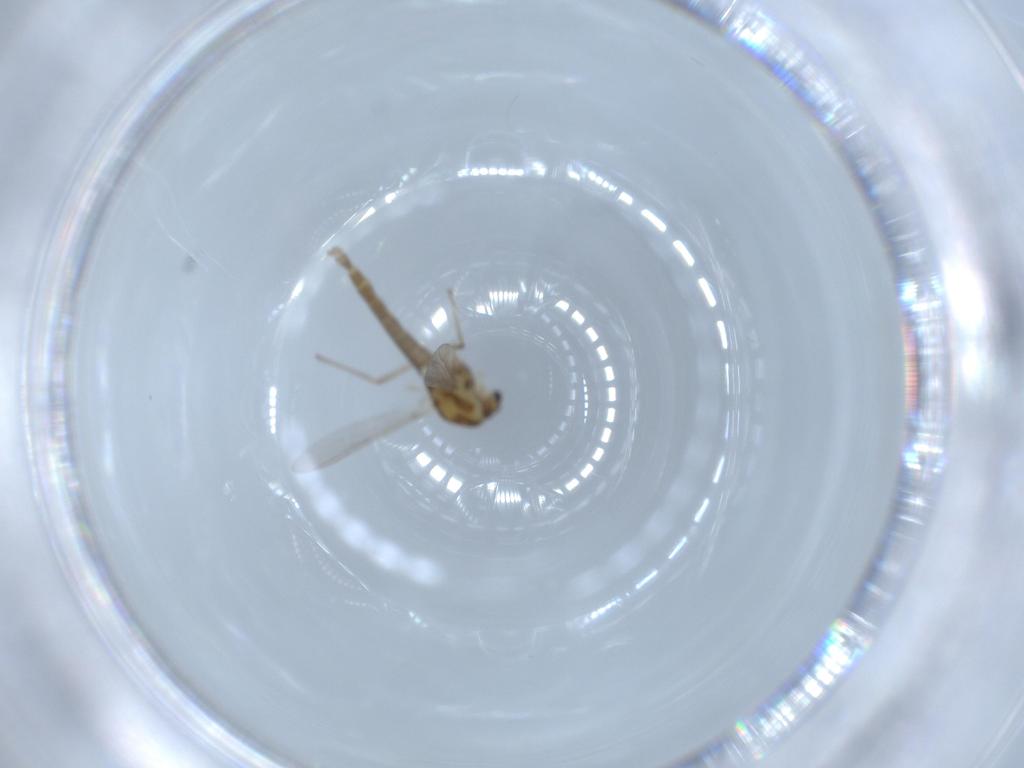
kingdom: Animalia
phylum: Arthropoda
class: Insecta
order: Diptera
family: Chironomidae
